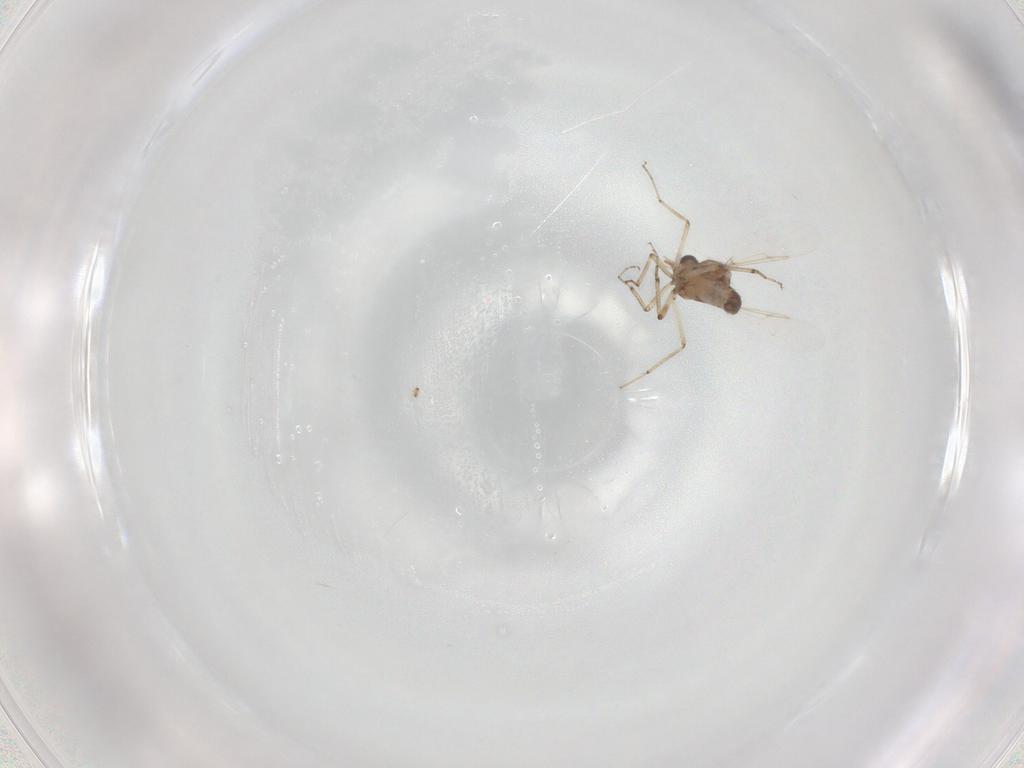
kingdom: Animalia
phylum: Arthropoda
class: Insecta
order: Diptera
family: Ceratopogonidae
